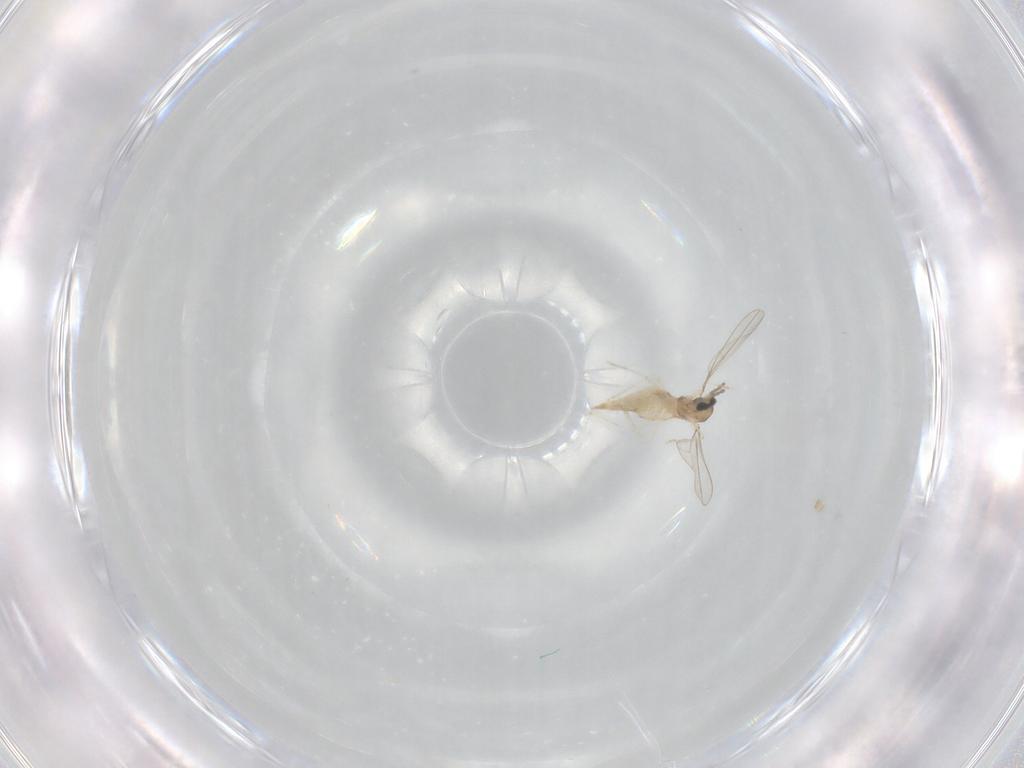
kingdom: Animalia
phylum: Arthropoda
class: Insecta
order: Diptera
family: Cecidomyiidae
